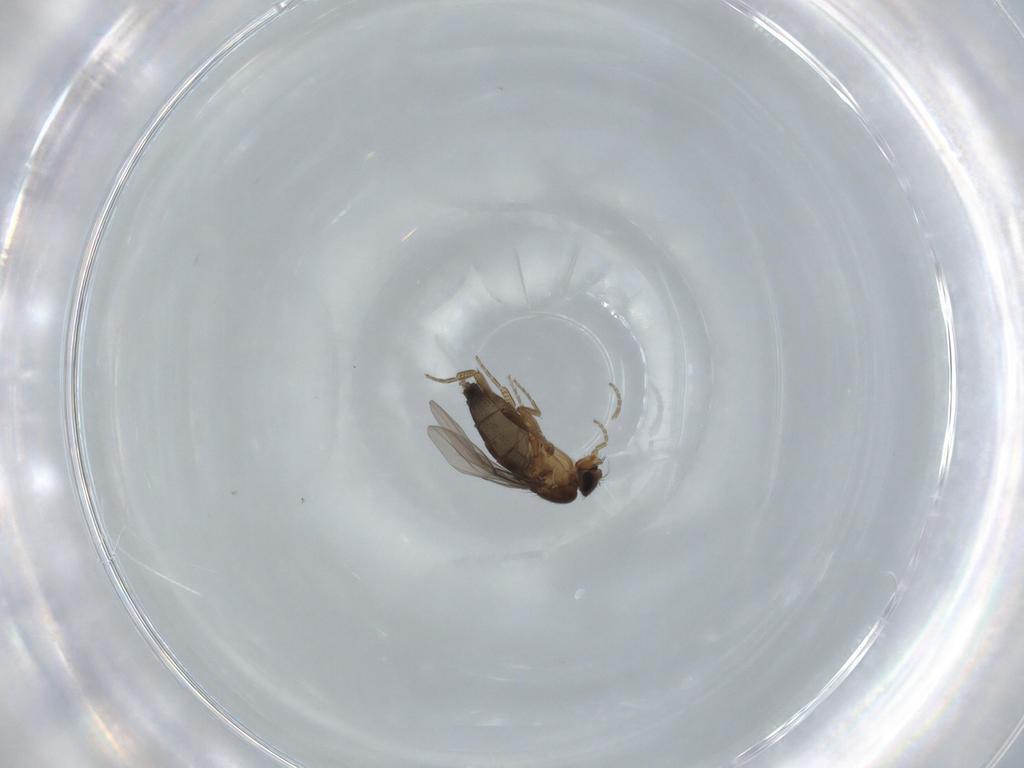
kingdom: Animalia
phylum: Arthropoda
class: Insecta
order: Diptera
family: Phoridae
